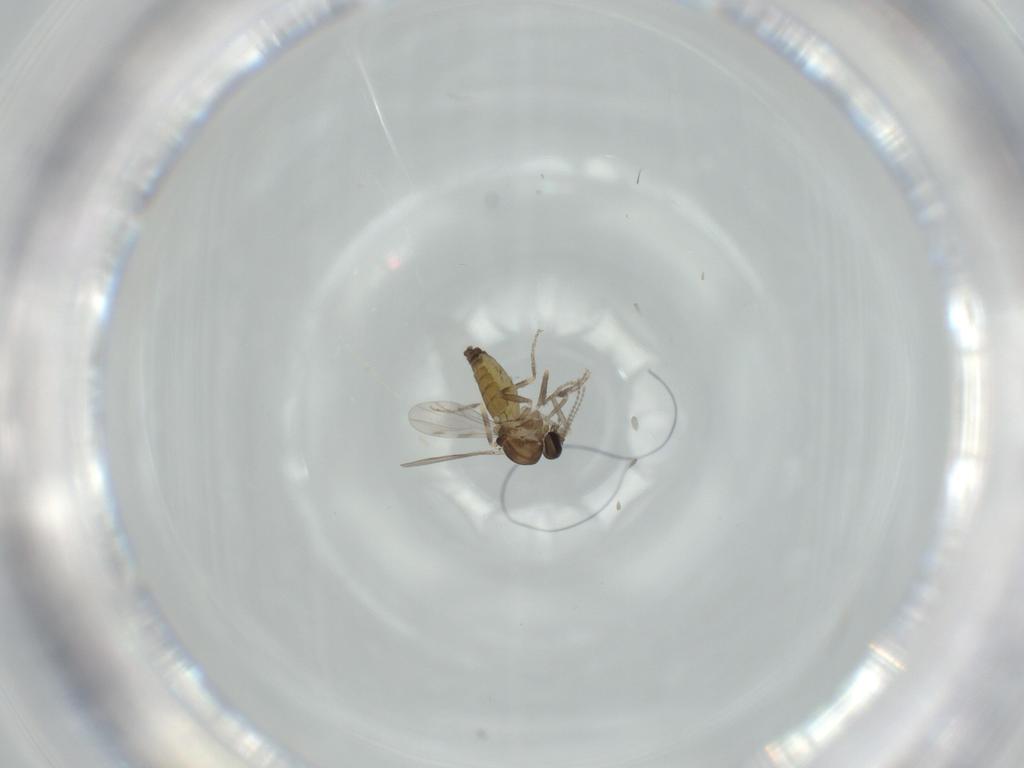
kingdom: Animalia
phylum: Arthropoda
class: Insecta
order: Diptera
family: Ceratopogonidae
